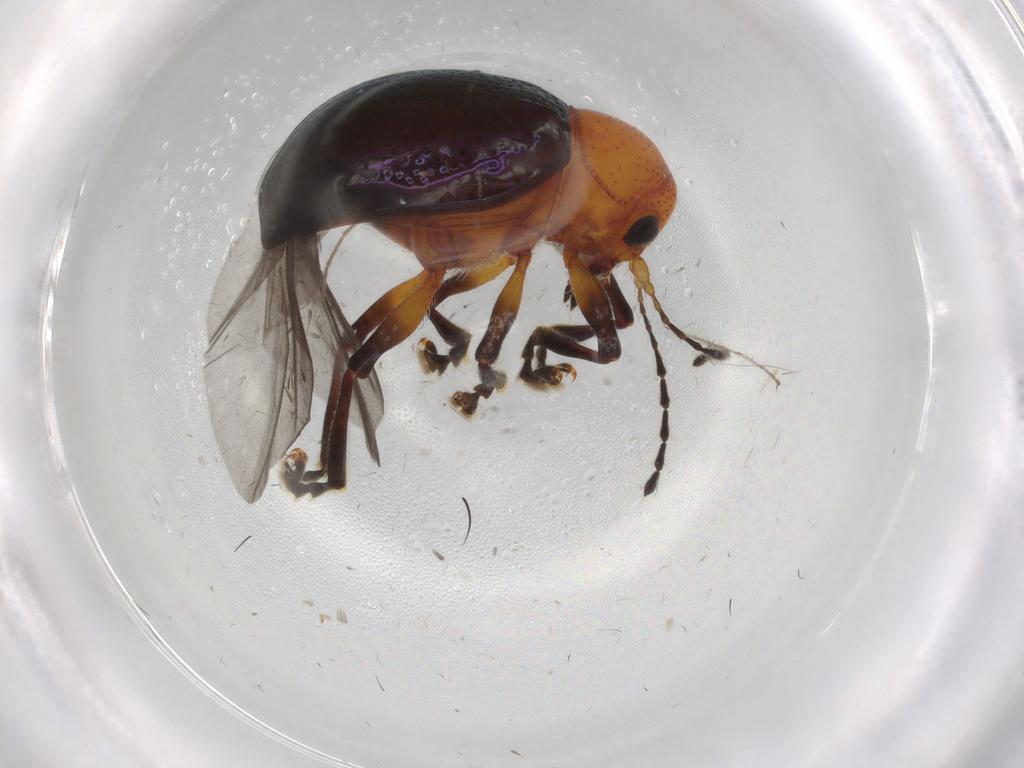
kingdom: Animalia
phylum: Arthropoda
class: Insecta
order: Coleoptera
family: Chrysomelidae
